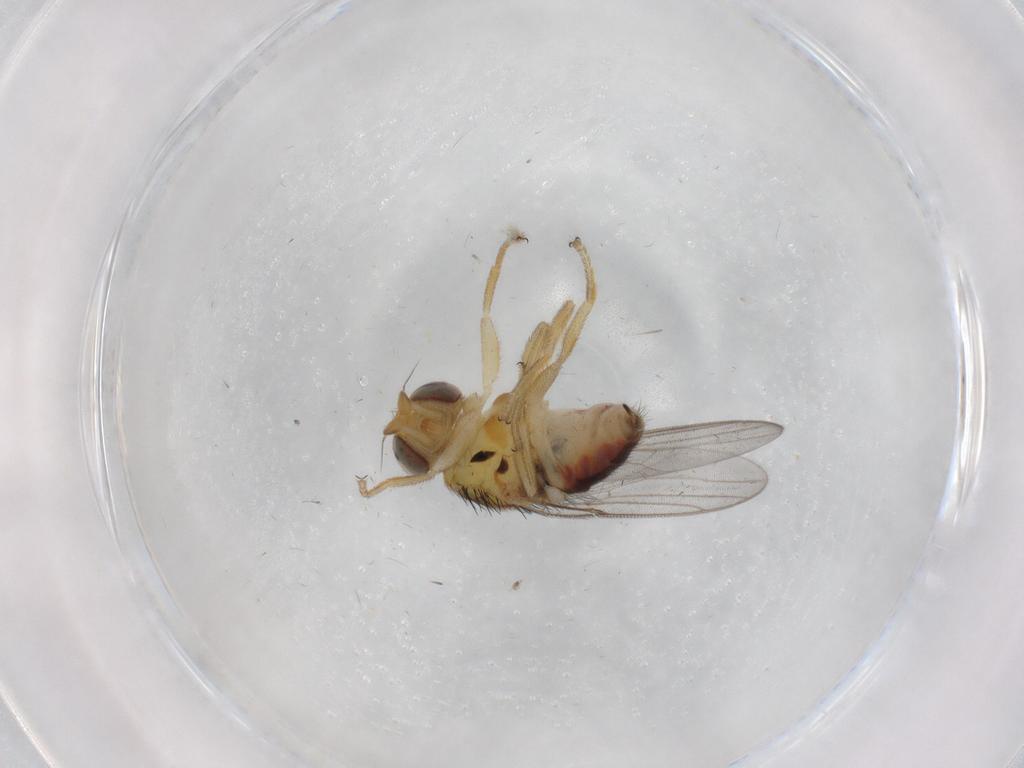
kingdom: Animalia
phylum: Arthropoda
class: Insecta
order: Diptera
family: Chloropidae
